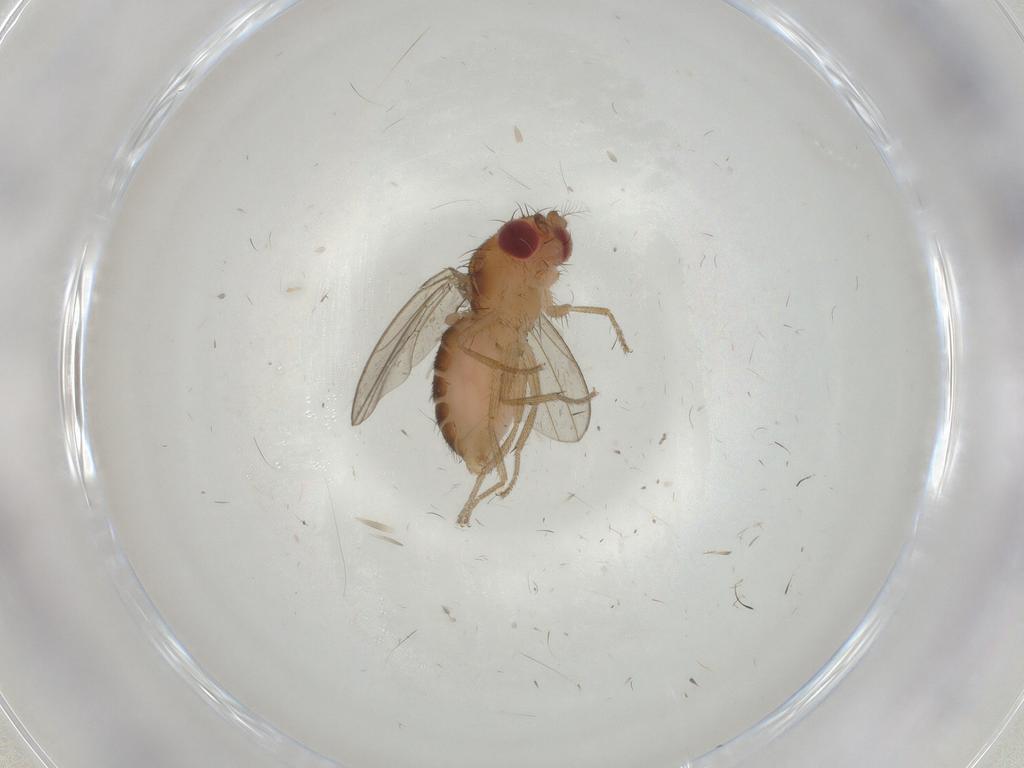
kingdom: Animalia
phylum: Arthropoda
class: Insecta
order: Diptera
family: Drosophilidae
